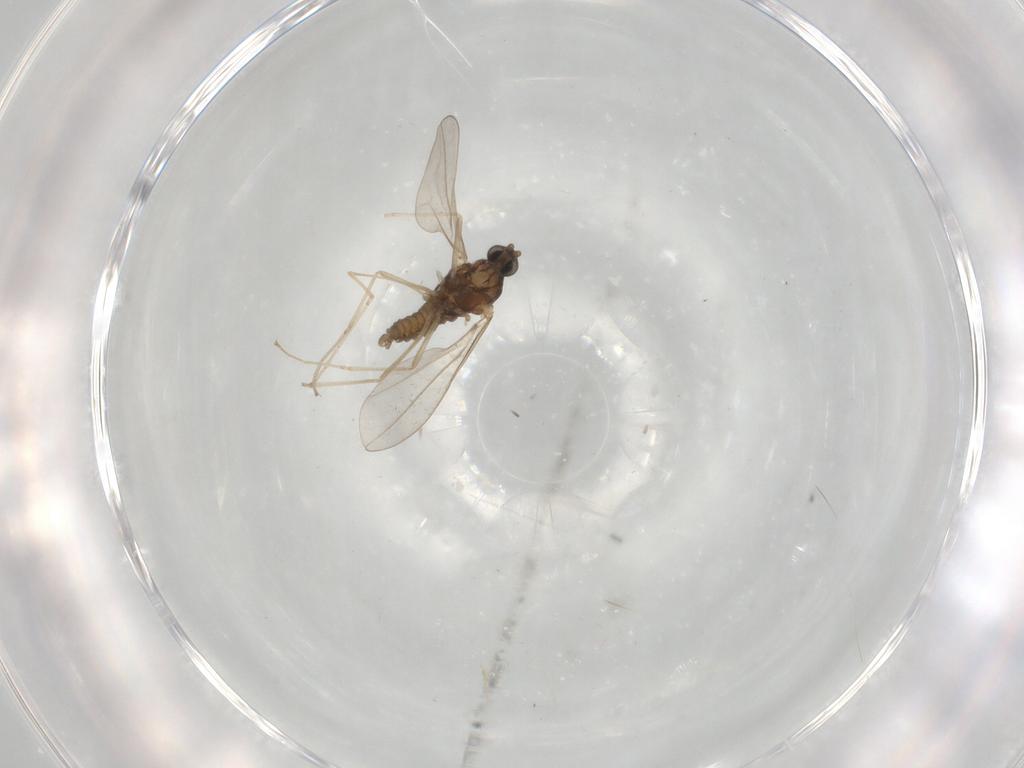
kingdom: Animalia
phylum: Arthropoda
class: Insecta
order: Diptera
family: Cecidomyiidae
